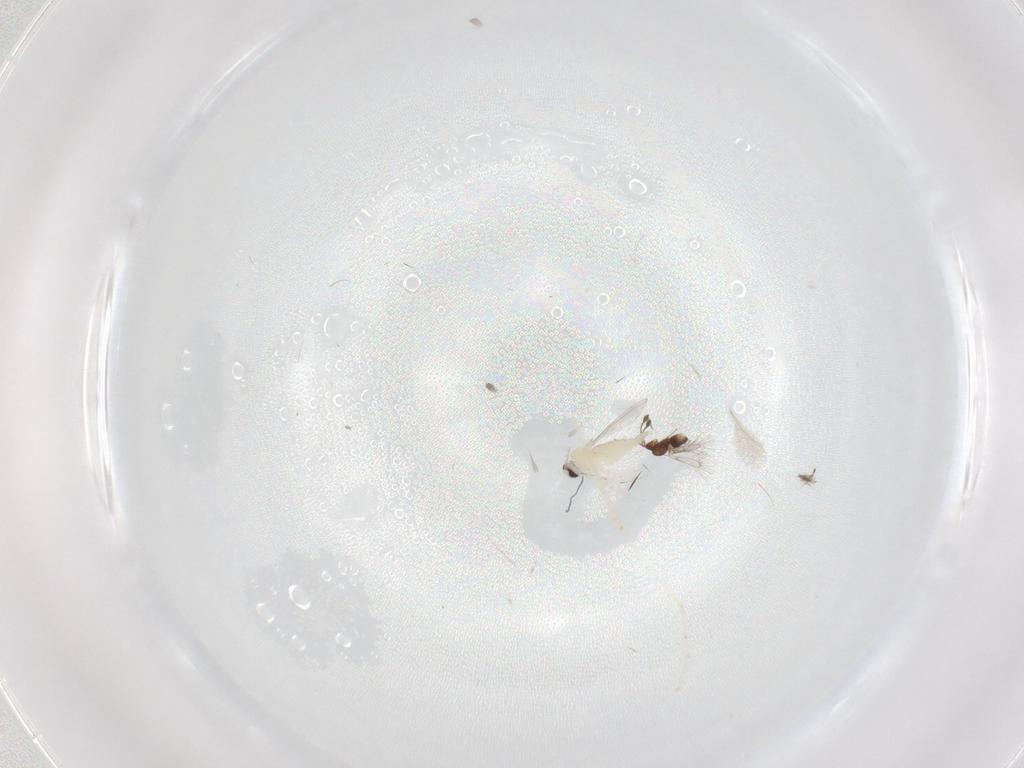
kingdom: Animalia
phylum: Arthropoda
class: Insecta
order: Diptera
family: Cecidomyiidae
